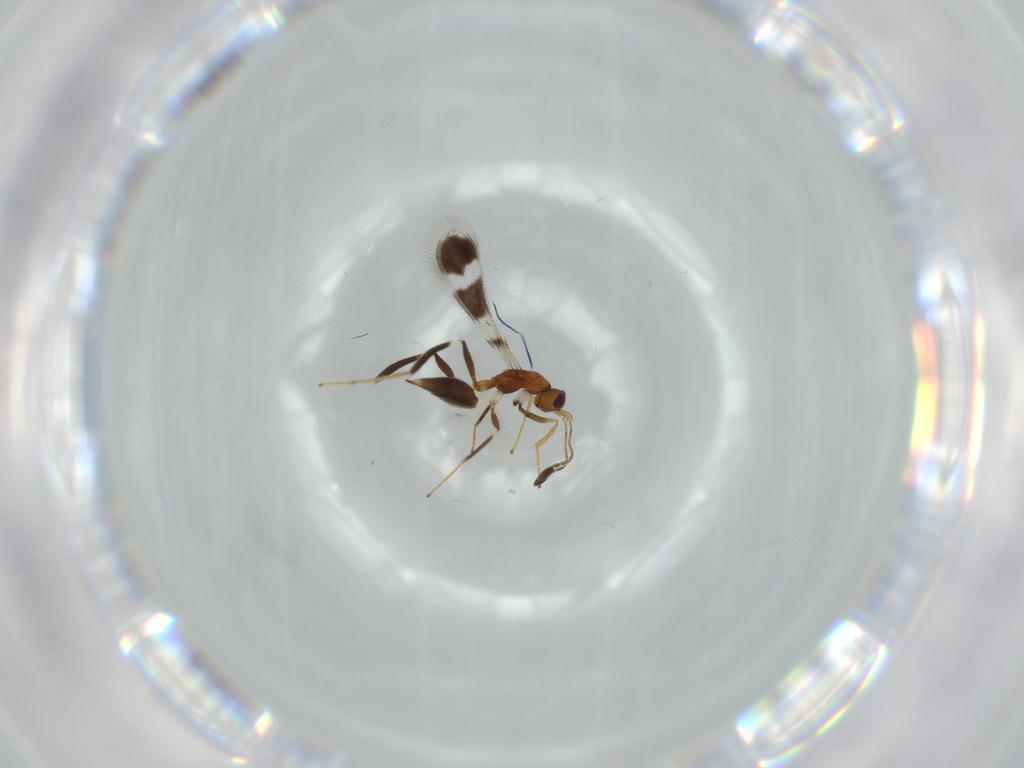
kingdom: Animalia
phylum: Arthropoda
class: Insecta
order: Hymenoptera
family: Mymaridae
